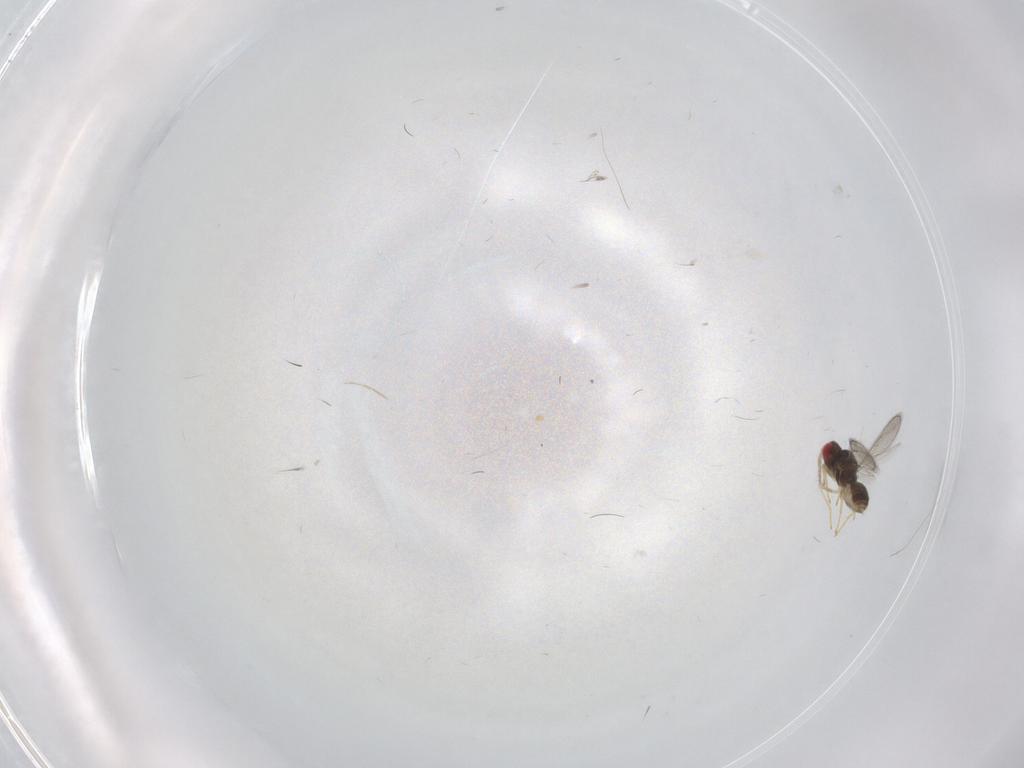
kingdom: Animalia
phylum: Arthropoda
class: Insecta
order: Hymenoptera
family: Eulophidae
